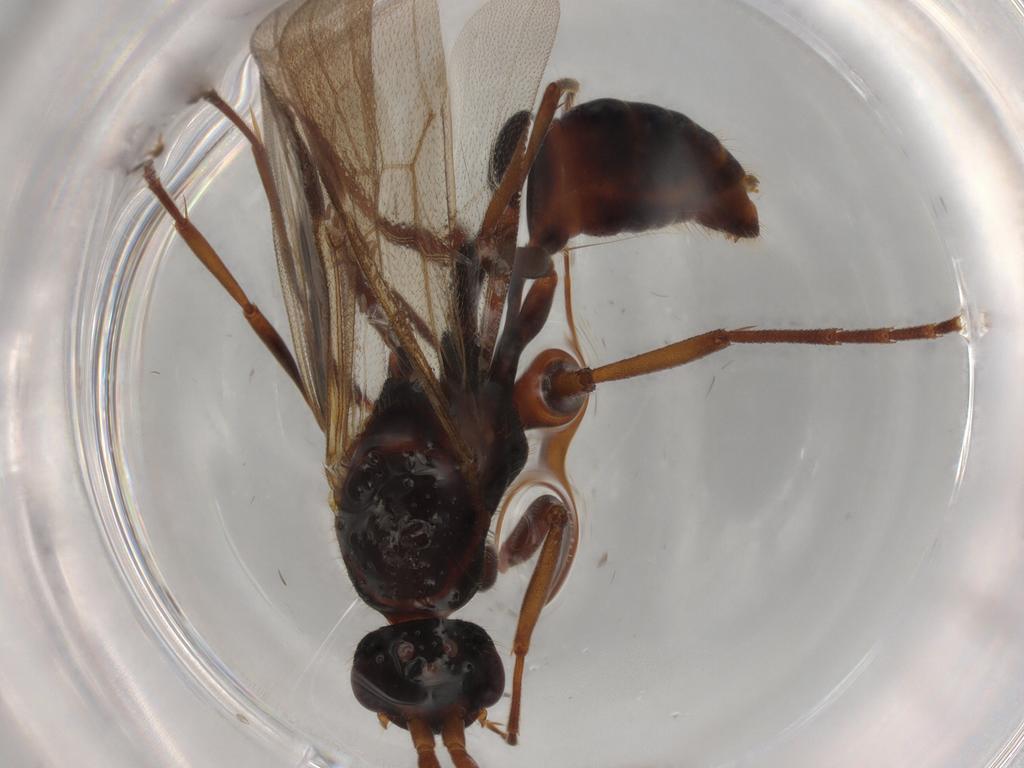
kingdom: Animalia
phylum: Arthropoda
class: Insecta
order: Hymenoptera
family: Formicidae
